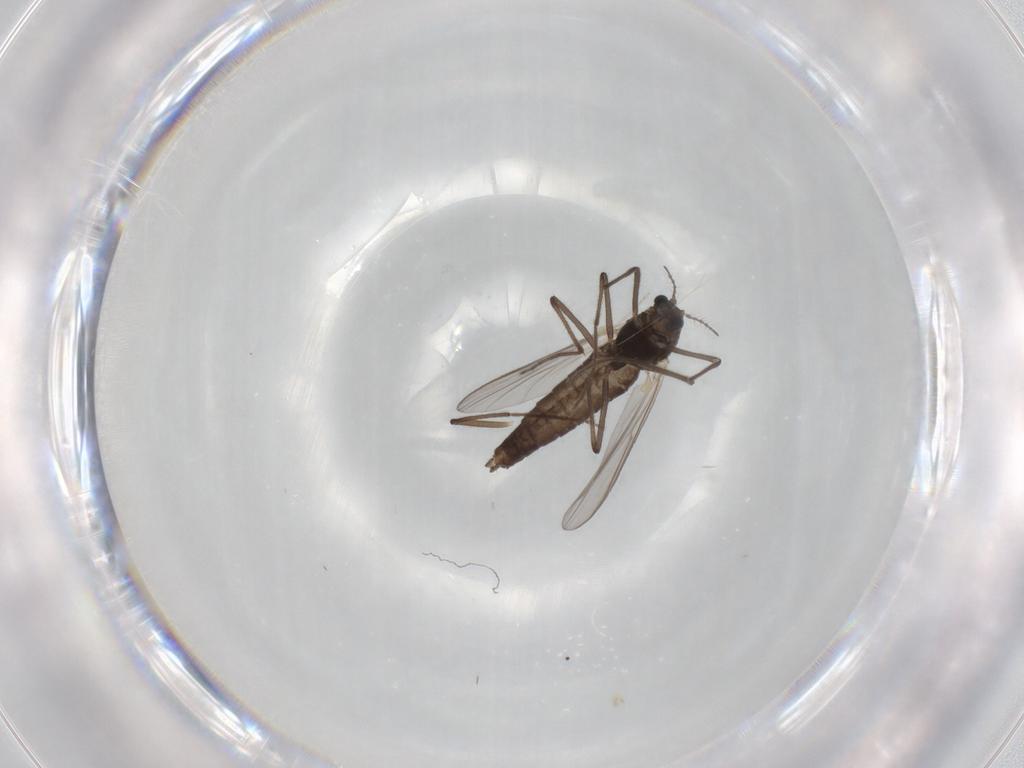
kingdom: Animalia
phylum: Arthropoda
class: Insecta
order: Diptera
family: Chironomidae
